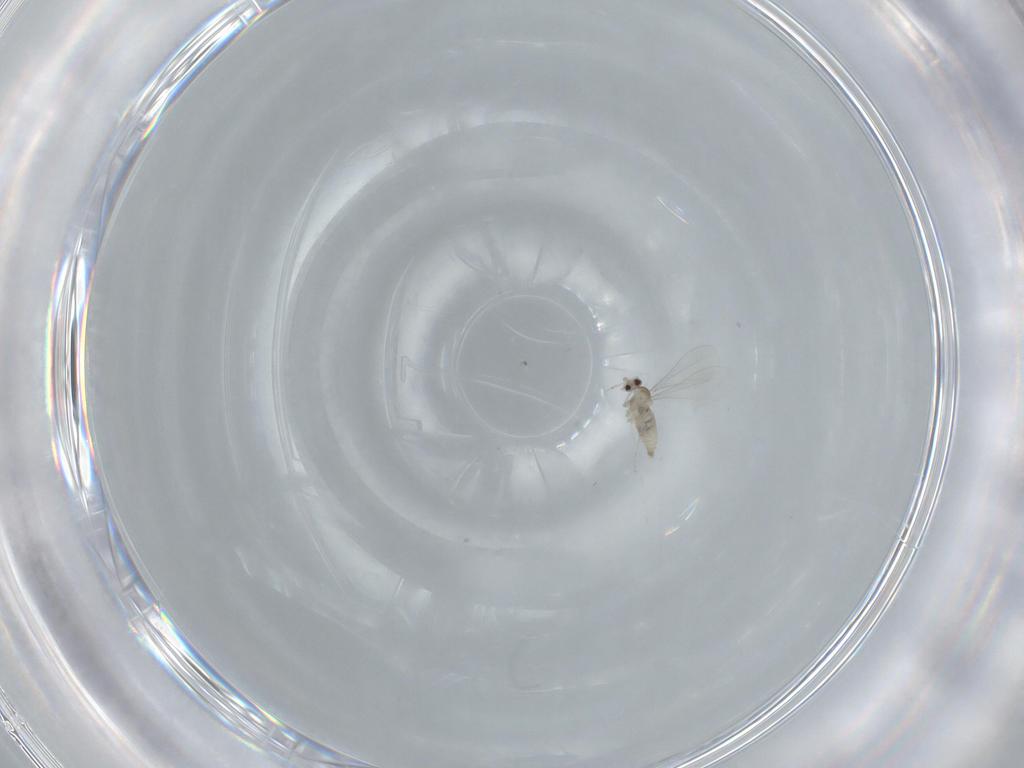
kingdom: Animalia
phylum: Arthropoda
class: Insecta
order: Diptera
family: Cecidomyiidae
